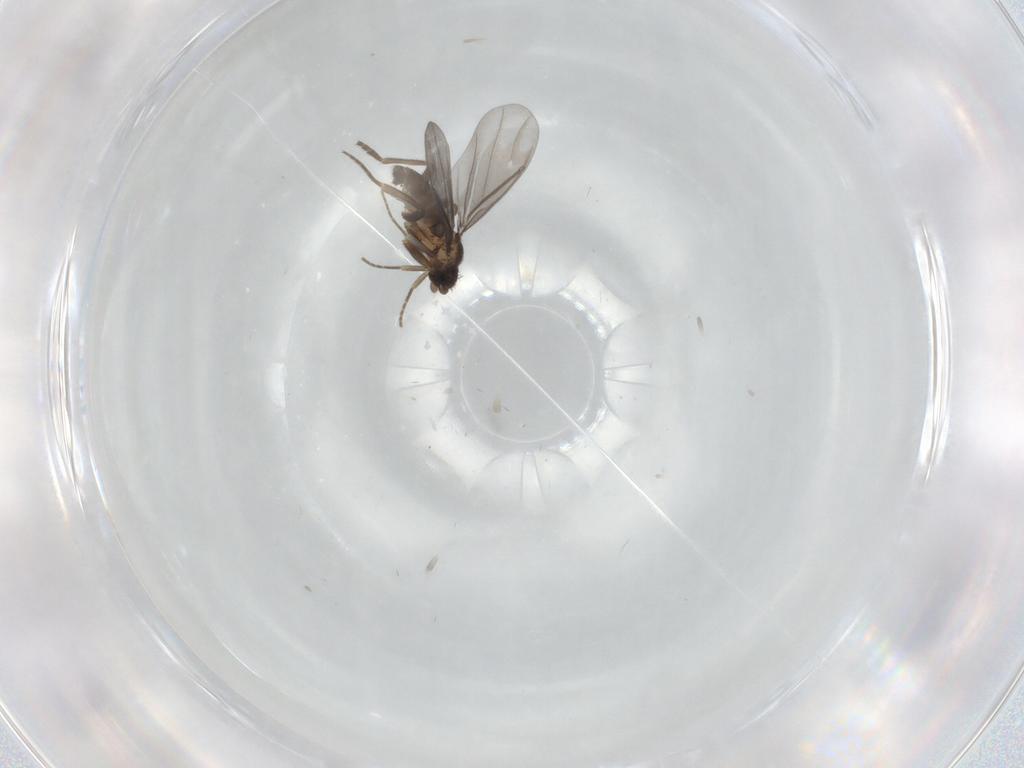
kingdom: Animalia
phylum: Arthropoda
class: Insecta
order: Diptera
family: Phoridae
